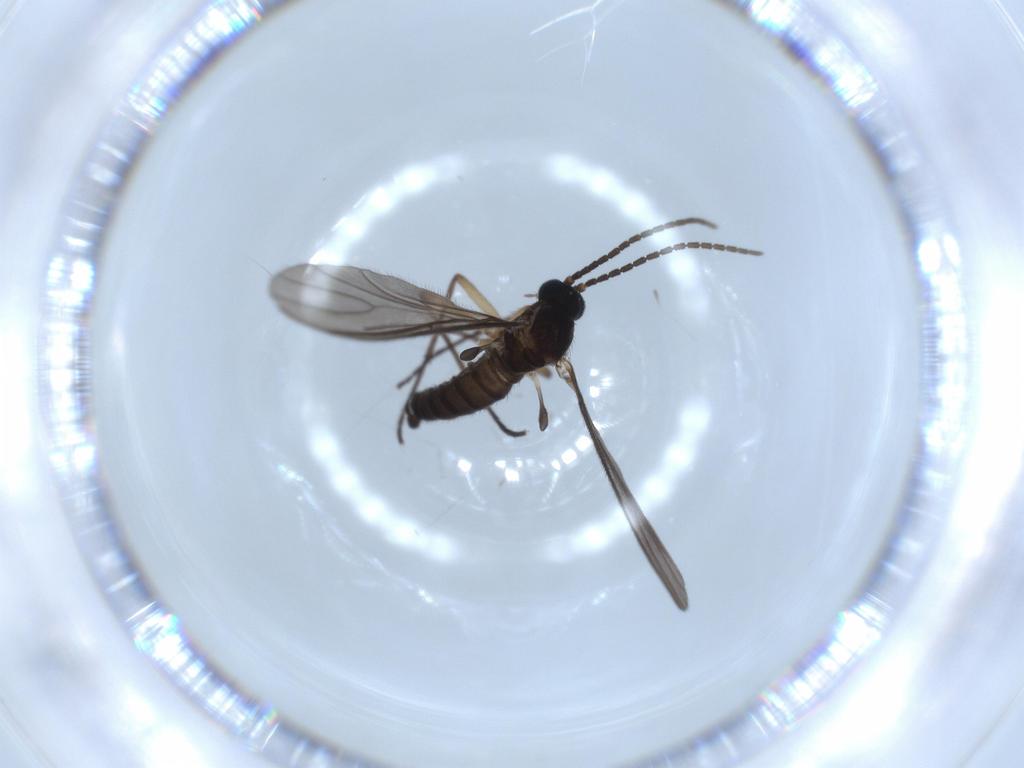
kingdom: Animalia
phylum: Arthropoda
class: Insecta
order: Diptera
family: Sciaridae
